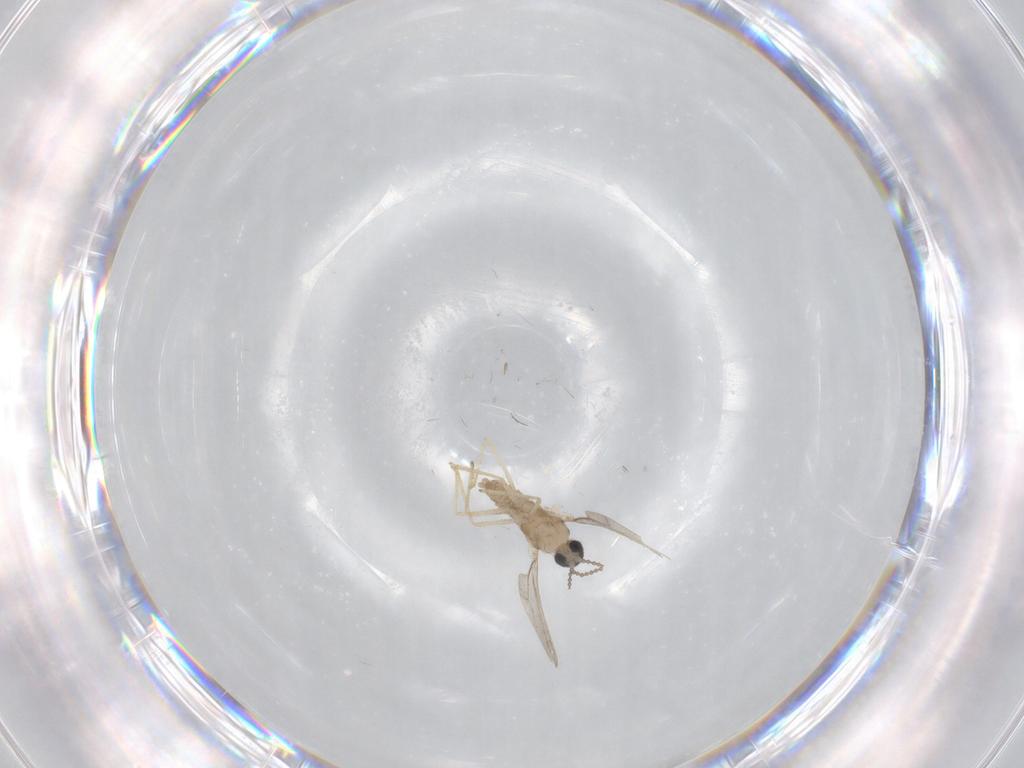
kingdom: Animalia
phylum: Arthropoda
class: Insecta
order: Diptera
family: Cecidomyiidae
